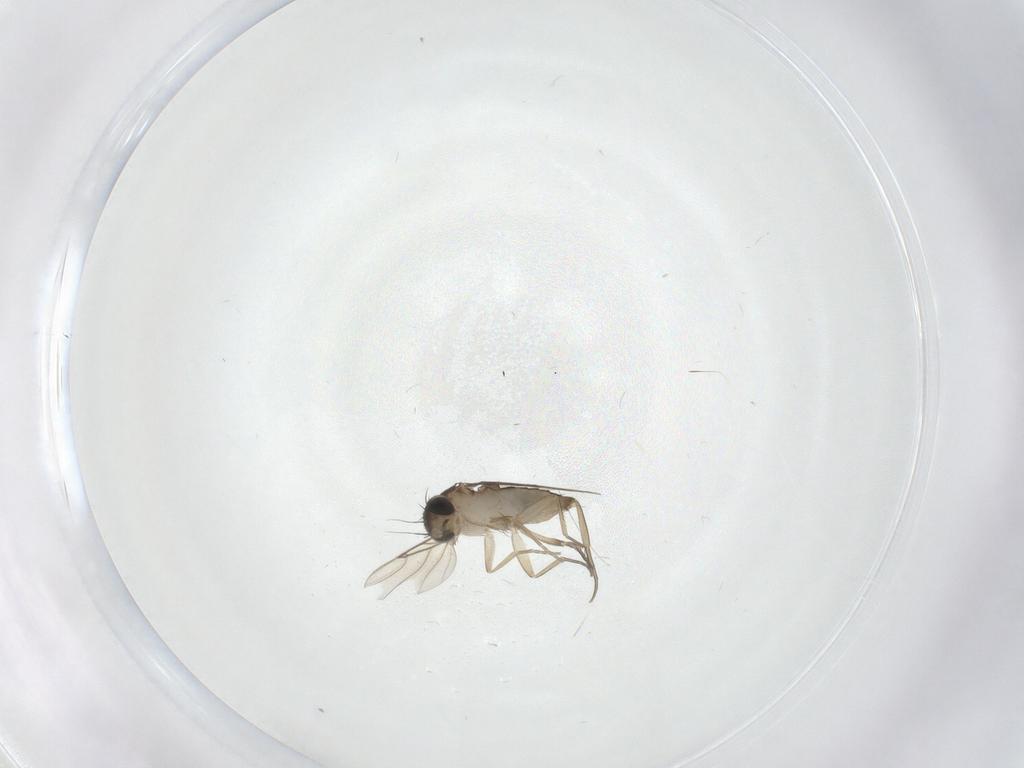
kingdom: Animalia
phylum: Arthropoda
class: Insecta
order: Diptera
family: Phoridae
